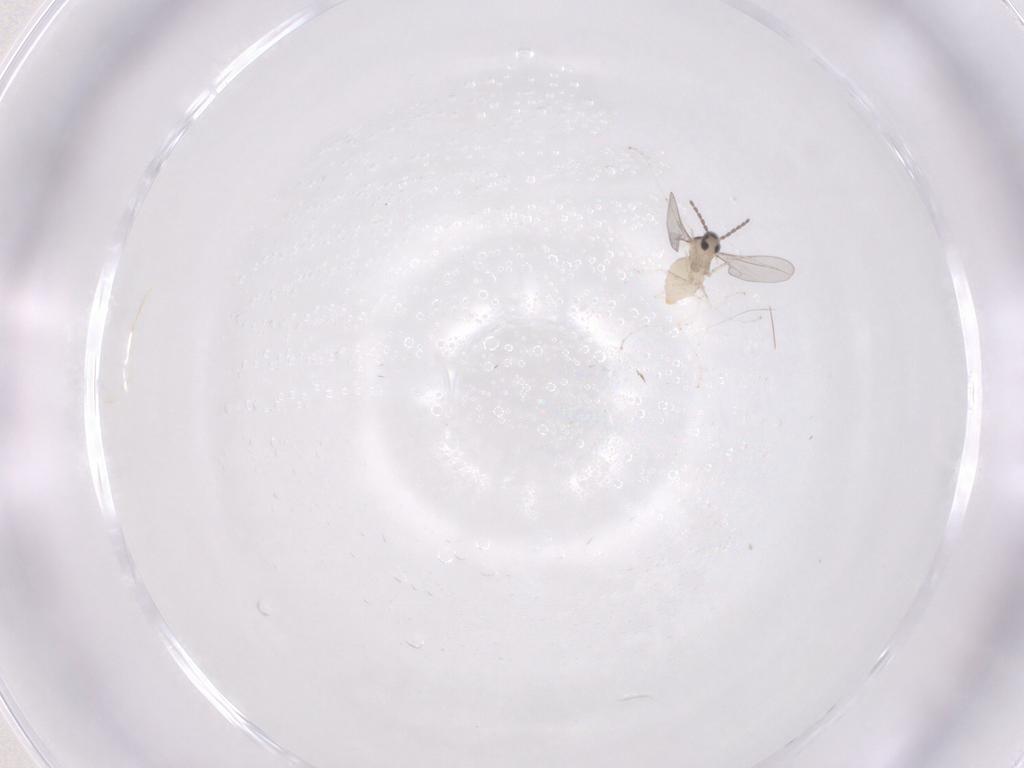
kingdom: Animalia
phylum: Arthropoda
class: Insecta
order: Diptera
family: Cecidomyiidae
